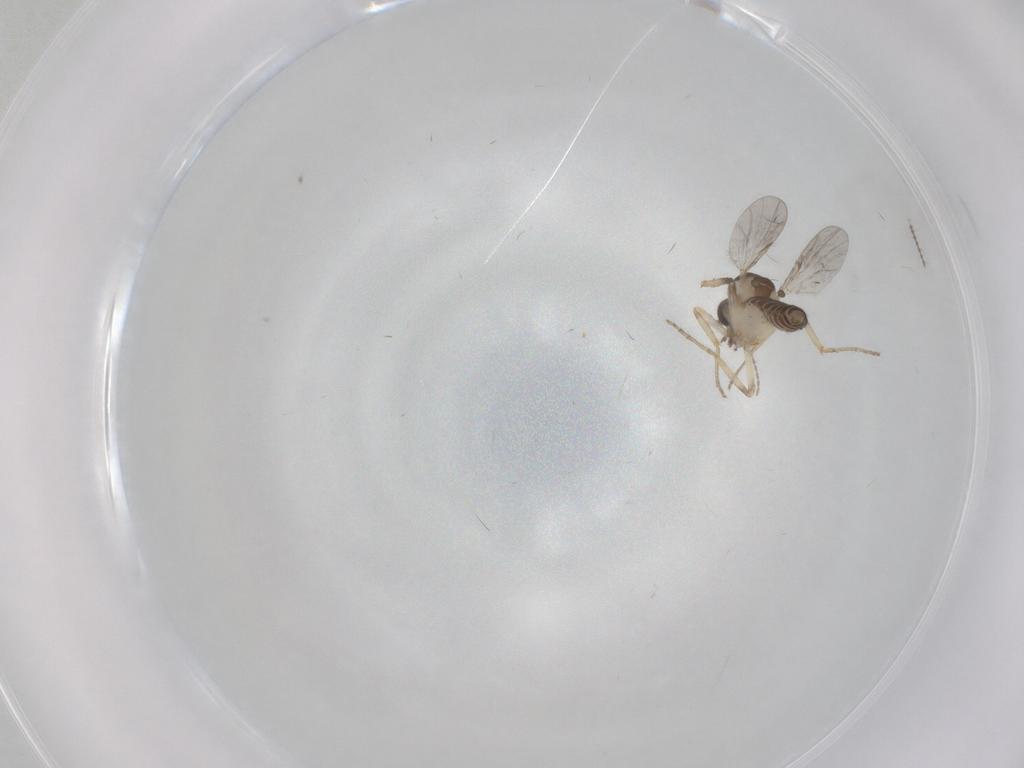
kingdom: Animalia
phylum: Arthropoda
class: Insecta
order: Diptera
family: Ceratopogonidae
